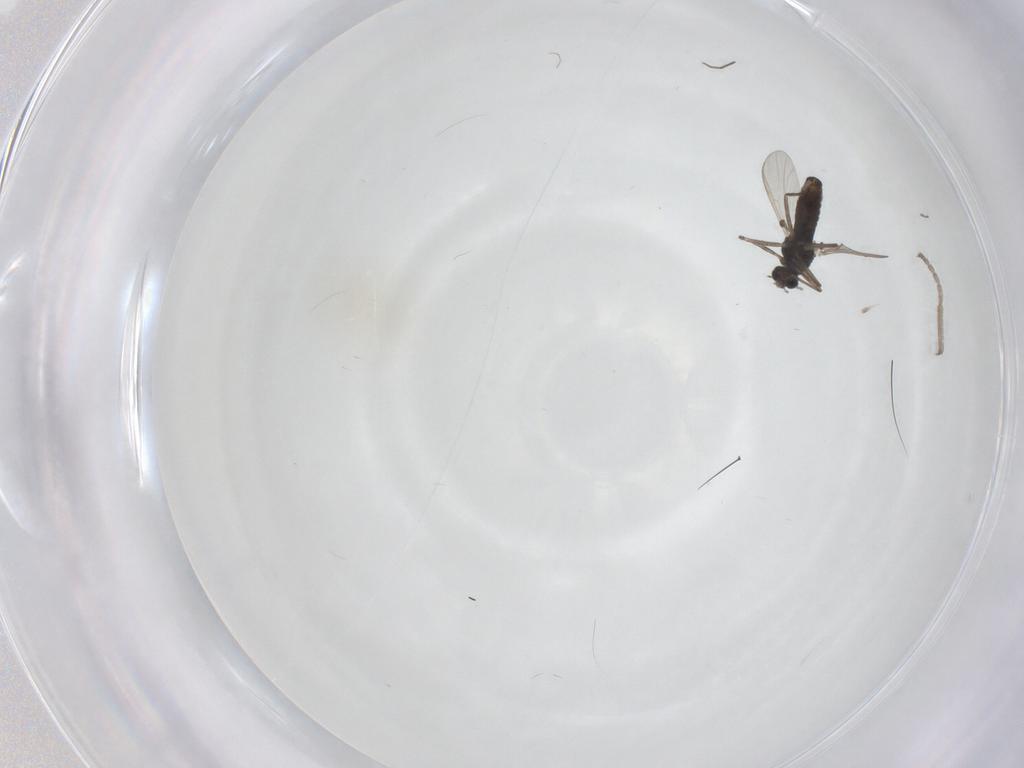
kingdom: Animalia
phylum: Arthropoda
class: Insecta
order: Diptera
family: Chironomidae
